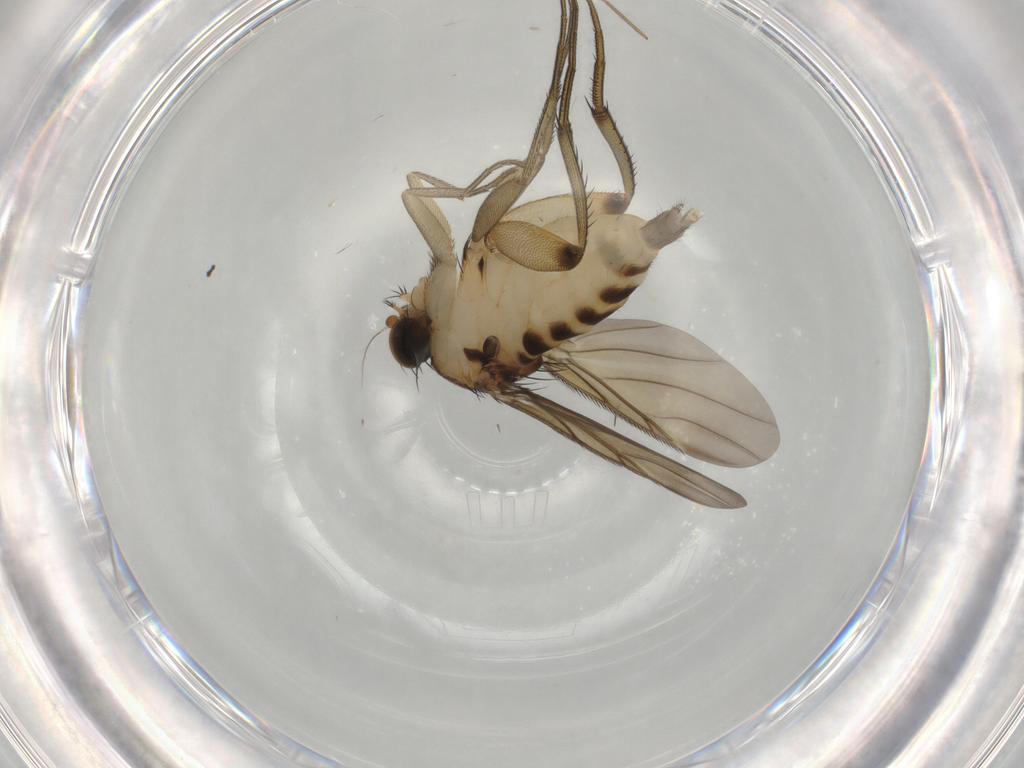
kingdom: Animalia
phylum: Arthropoda
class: Insecta
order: Diptera
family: Phoridae
